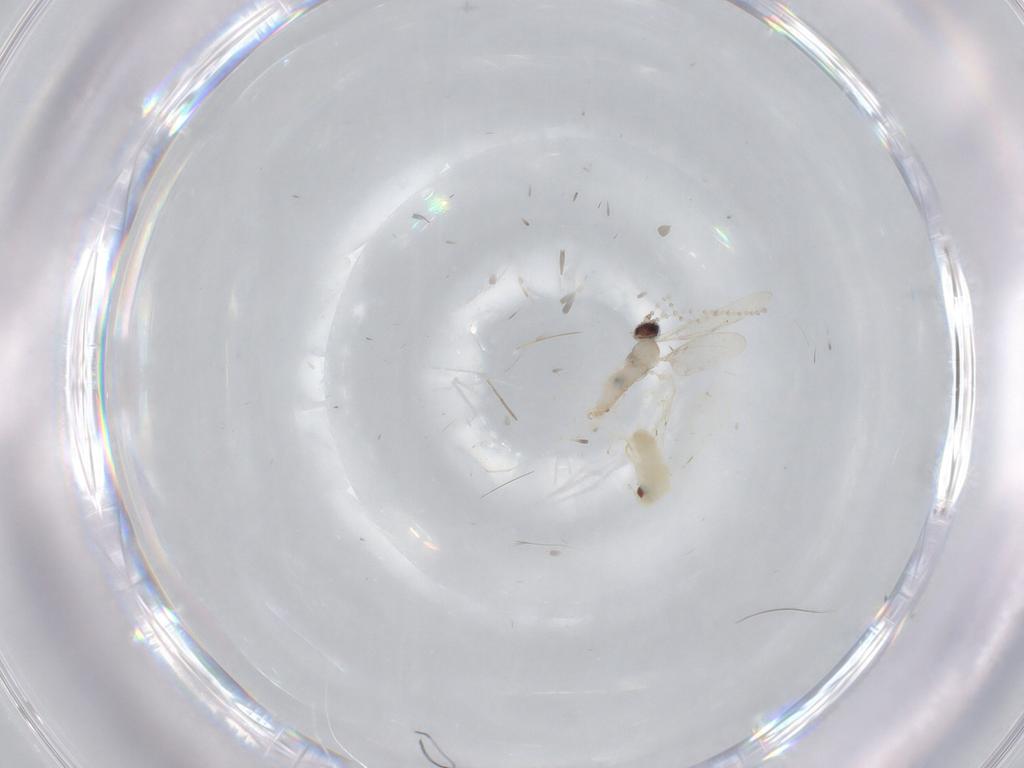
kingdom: Animalia
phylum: Arthropoda
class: Insecta
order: Diptera
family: Cecidomyiidae
